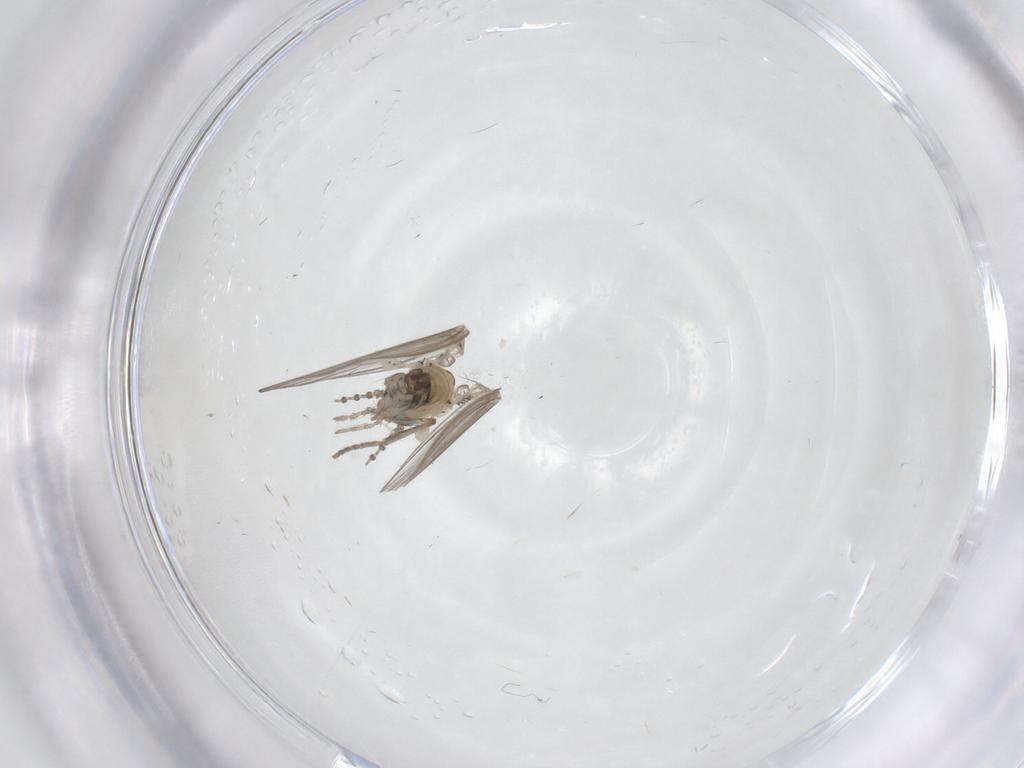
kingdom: Animalia
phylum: Arthropoda
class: Insecta
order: Diptera
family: Psychodidae
